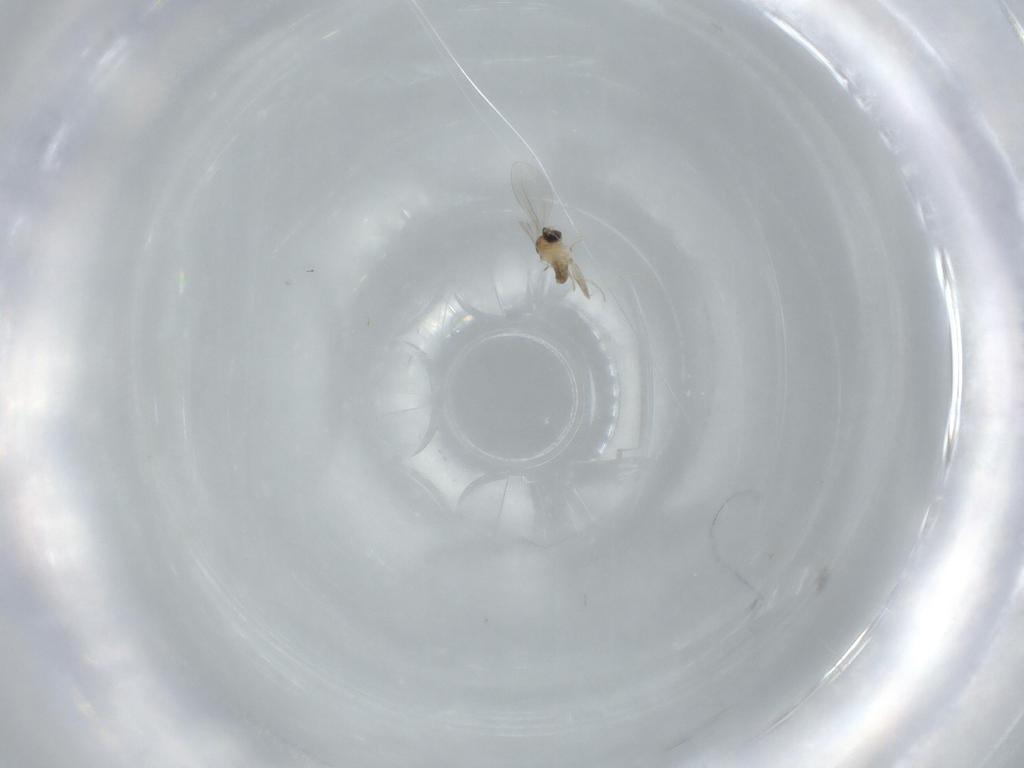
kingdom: Animalia
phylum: Arthropoda
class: Insecta
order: Diptera
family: Cecidomyiidae
